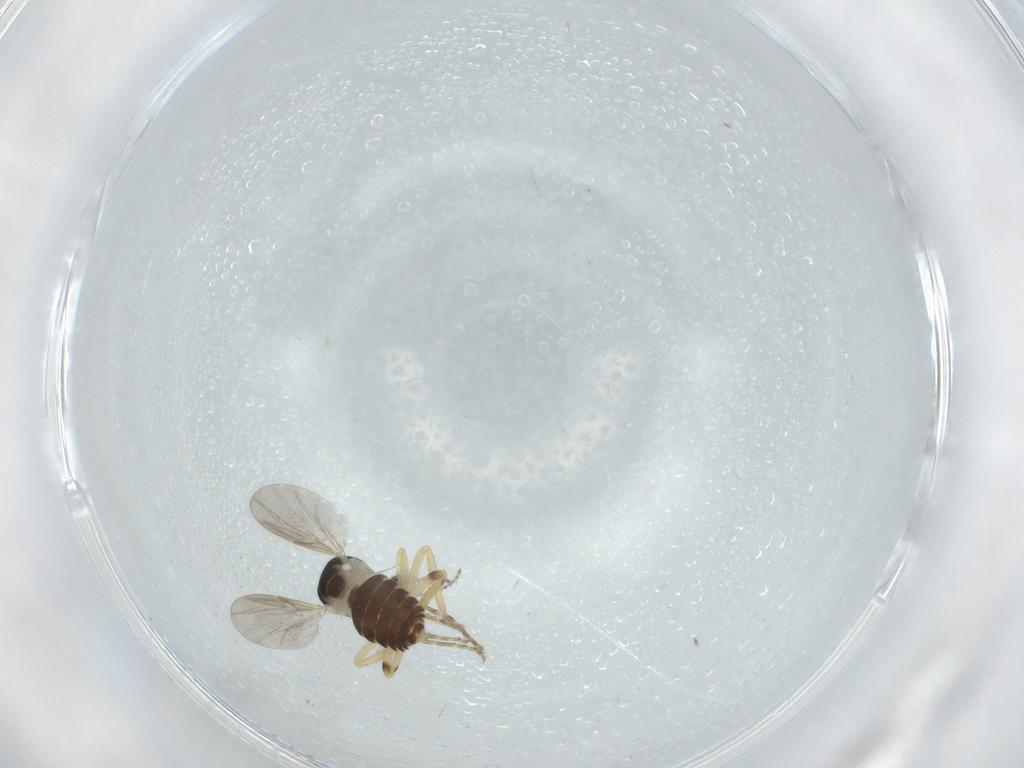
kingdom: Animalia
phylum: Arthropoda
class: Insecta
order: Diptera
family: Ceratopogonidae
